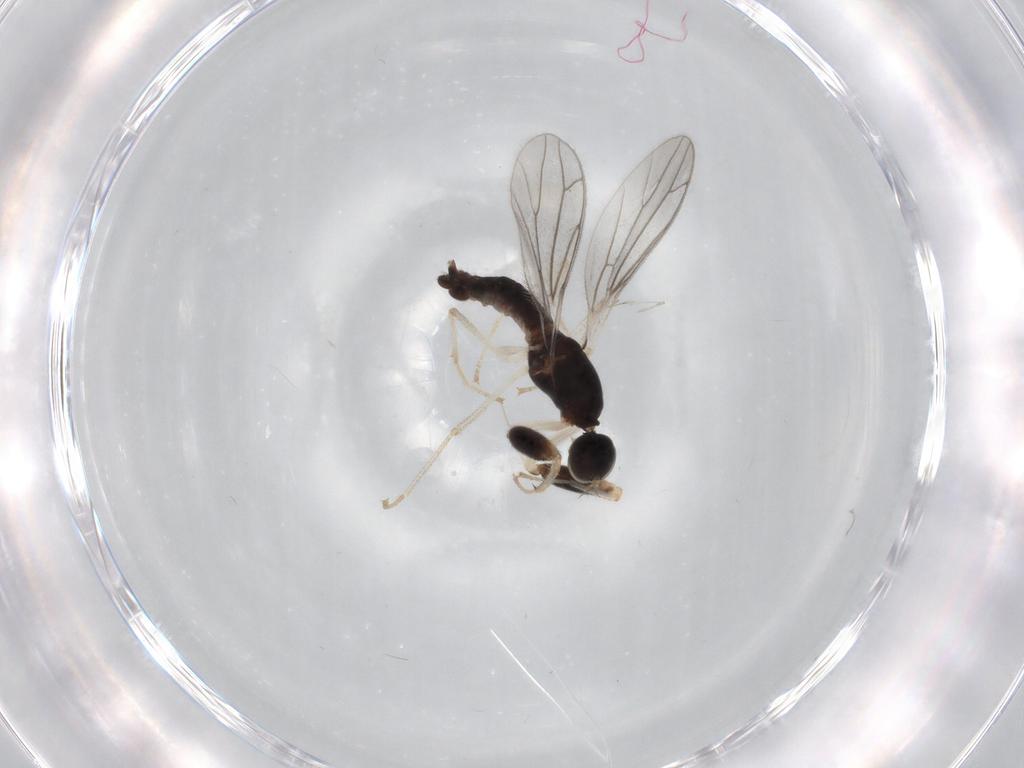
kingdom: Animalia
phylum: Arthropoda
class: Insecta
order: Diptera
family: Empididae
